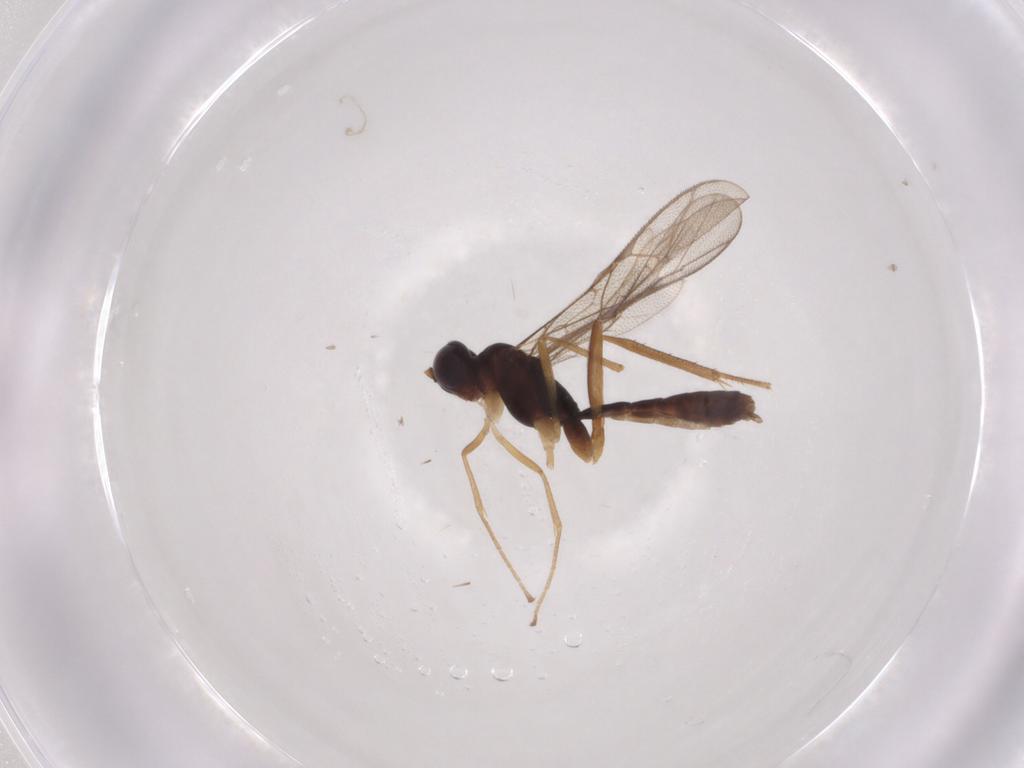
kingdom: Animalia
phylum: Arthropoda
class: Insecta
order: Hymenoptera
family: Ichneumonidae
